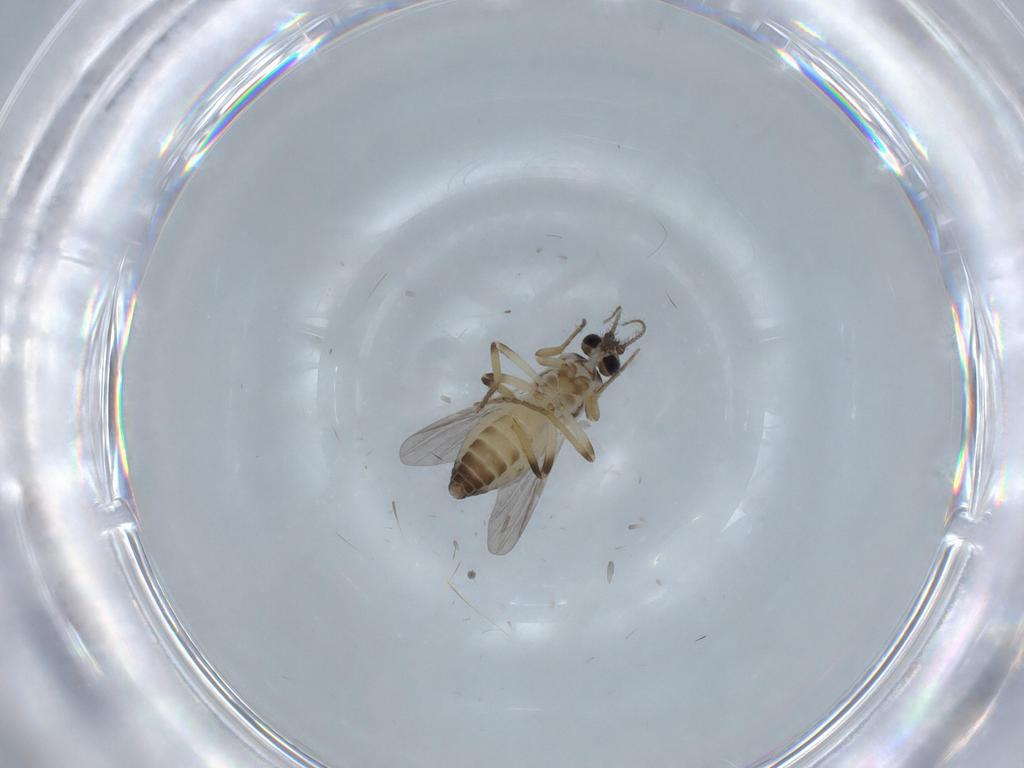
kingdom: Animalia
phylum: Arthropoda
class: Insecta
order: Diptera
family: Ceratopogonidae
